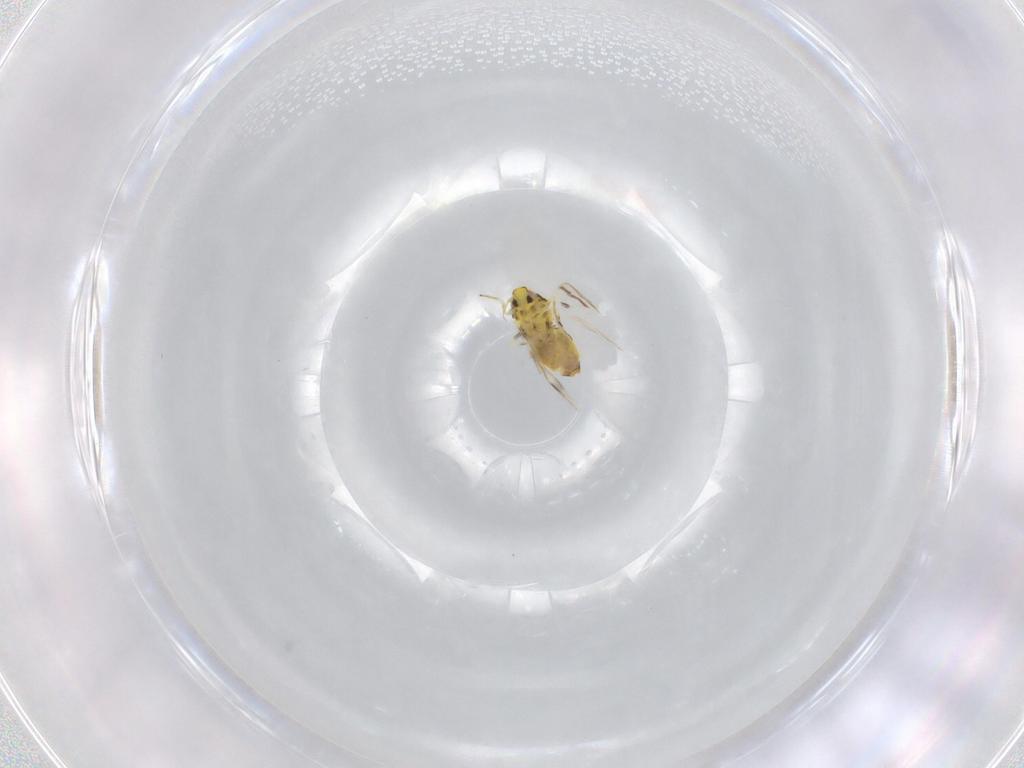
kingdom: Animalia
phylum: Arthropoda
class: Insecta
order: Hemiptera
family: Aleyrodidae
